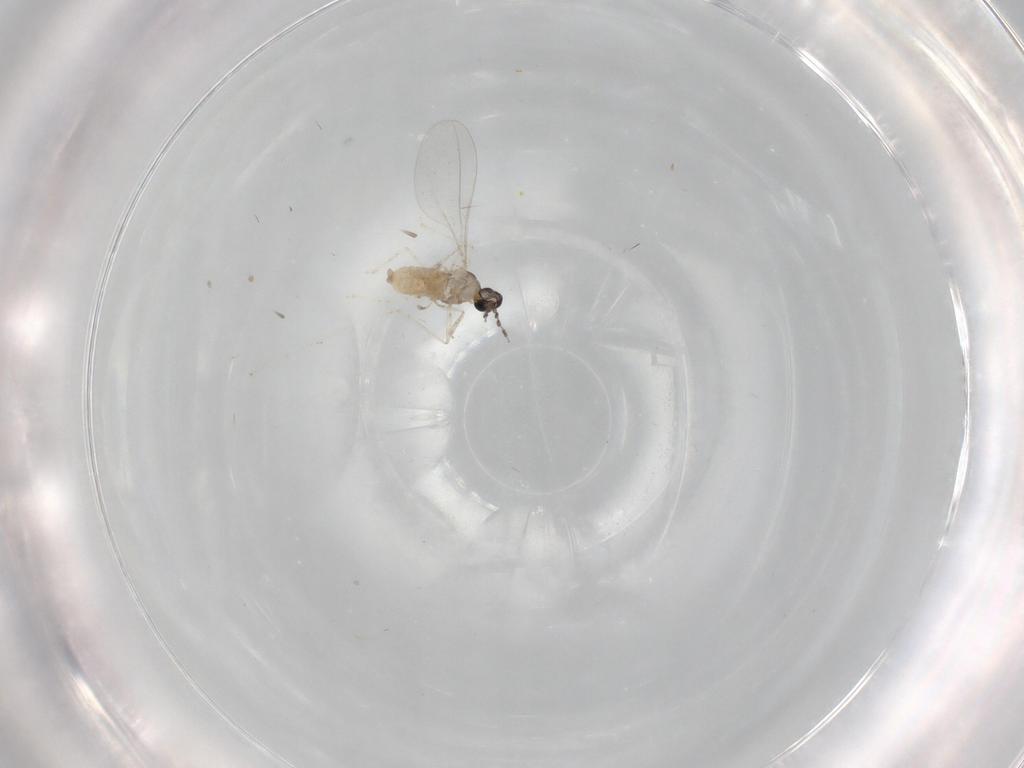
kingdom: Animalia
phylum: Arthropoda
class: Insecta
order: Diptera
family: Cecidomyiidae
